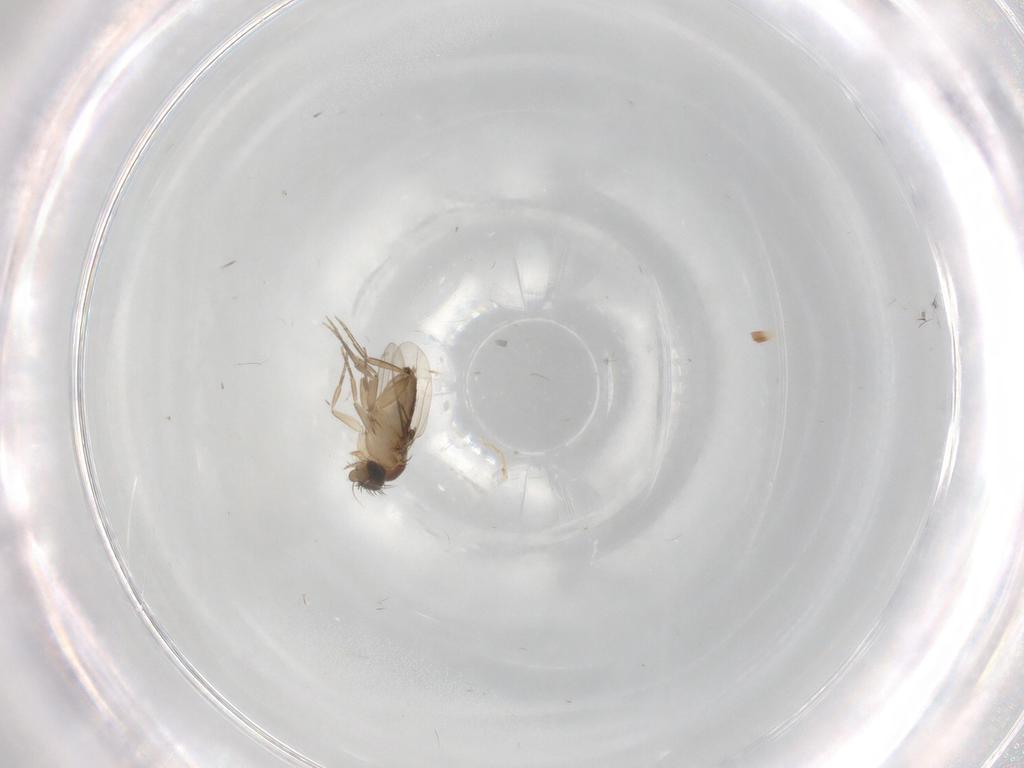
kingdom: Animalia
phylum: Arthropoda
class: Insecta
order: Diptera
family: Phoridae
